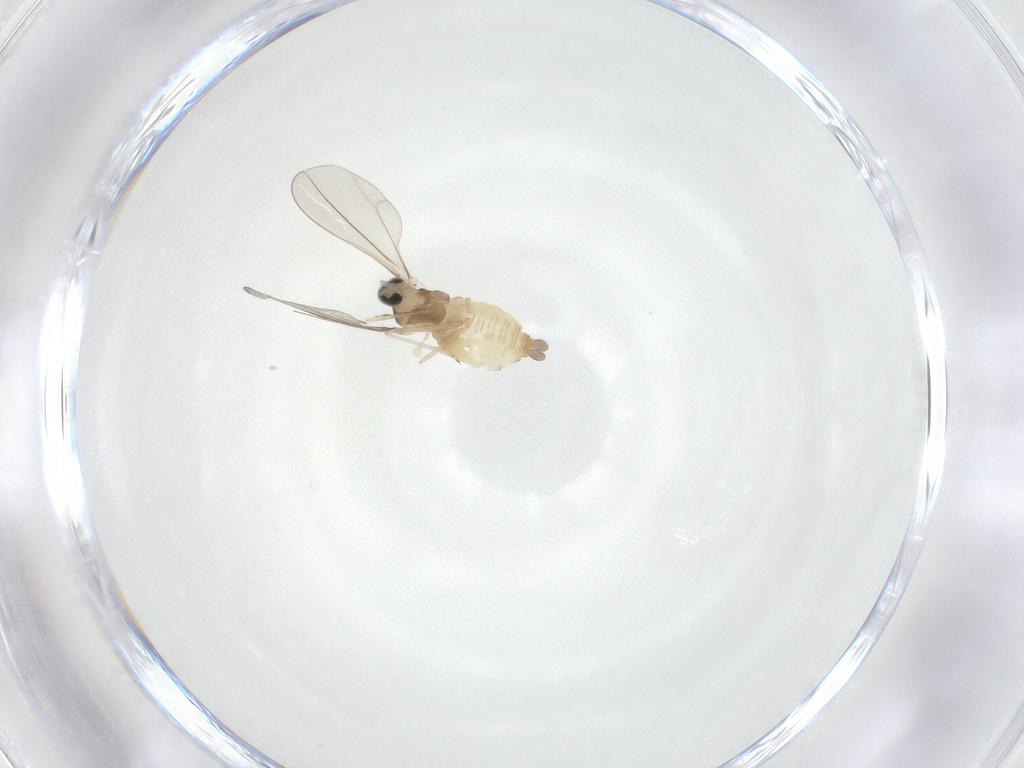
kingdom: Animalia
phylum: Arthropoda
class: Insecta
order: Diptera
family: Cecidomyiidae
